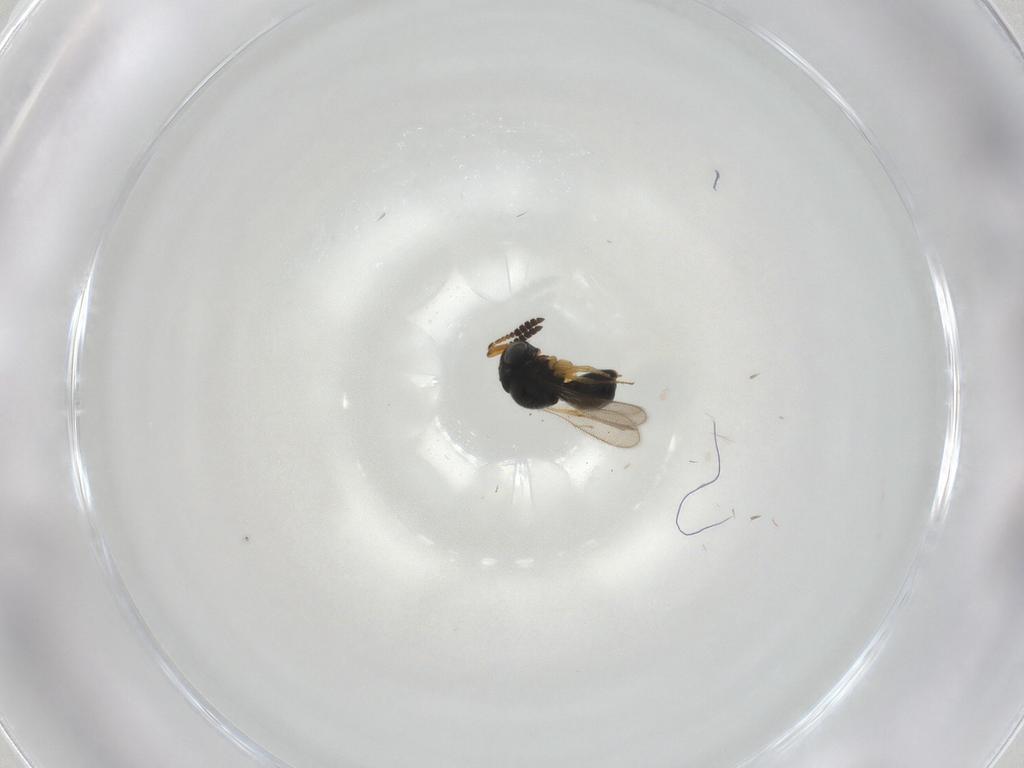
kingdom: Animalia
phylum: Arthropoda
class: Insecta
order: Hymenoptera
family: Scelionidae
